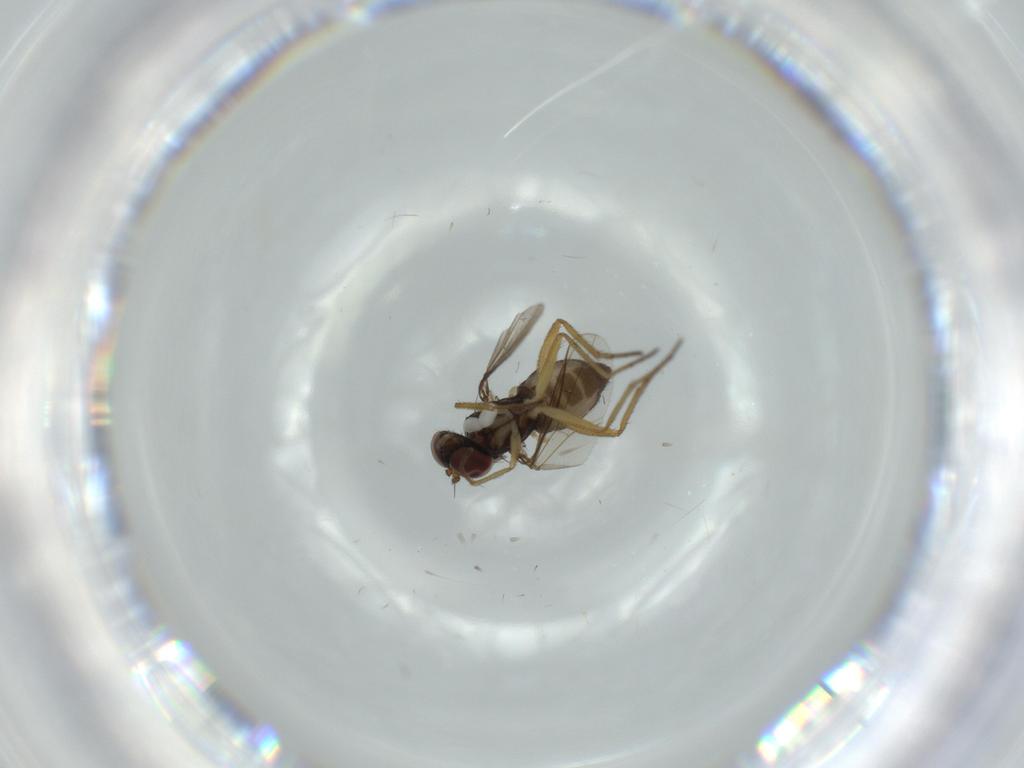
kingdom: Animalia
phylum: Arthropoda
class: Insecta
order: Diptera
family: Dolichopodidae
